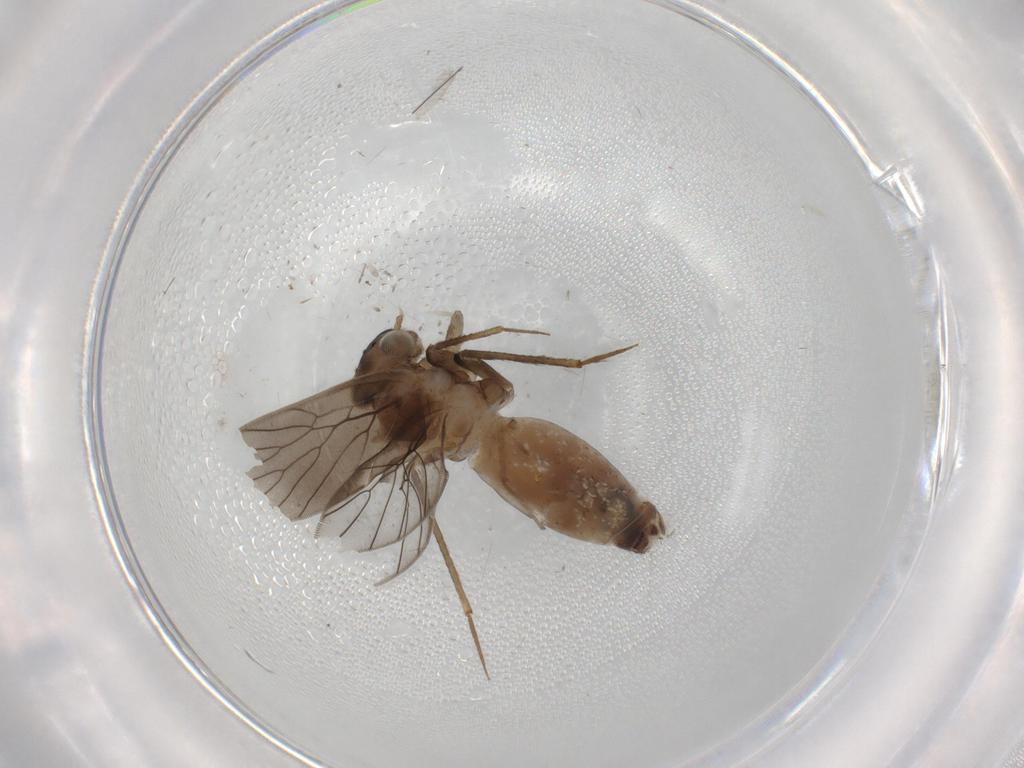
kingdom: Animalia
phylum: Arthropoda
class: Insecta
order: Psocodea
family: Lepidopsocidae
